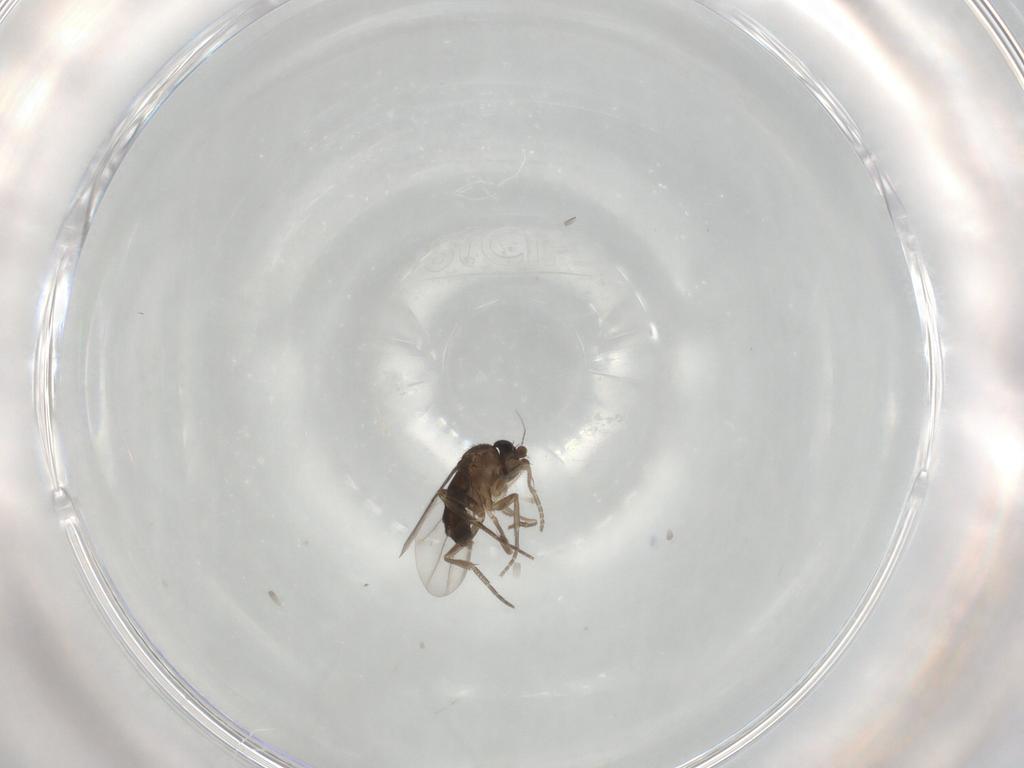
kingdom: Animalia
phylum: Arthropoda
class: Insecta
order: Diptera
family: Phoridae
